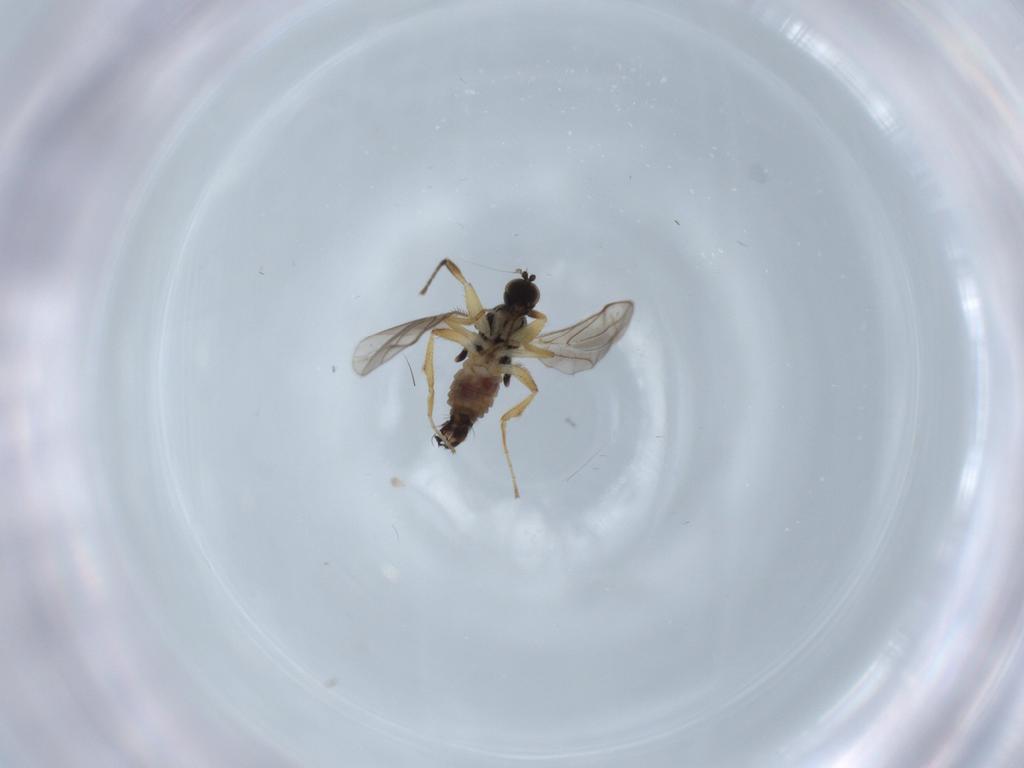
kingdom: Animalia
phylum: Arthropoda
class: Insecta
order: Diptera
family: Hybotidae
